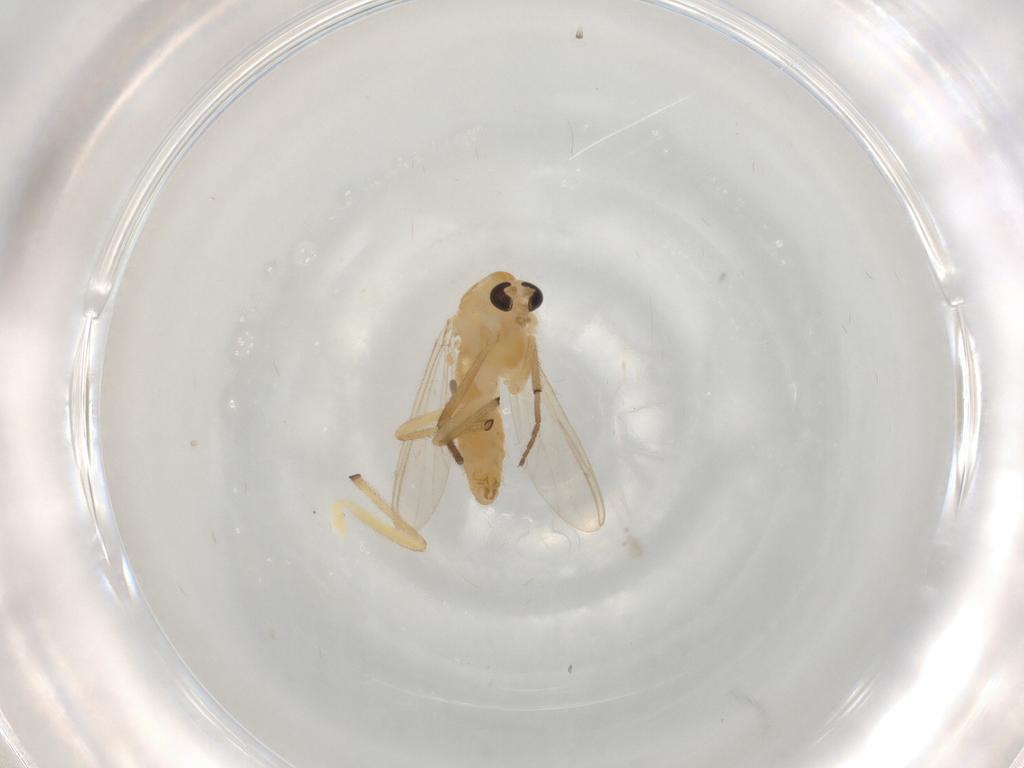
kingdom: Animalia
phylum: Arthropoda
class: Insecta
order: Diptera
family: Chironomidae
